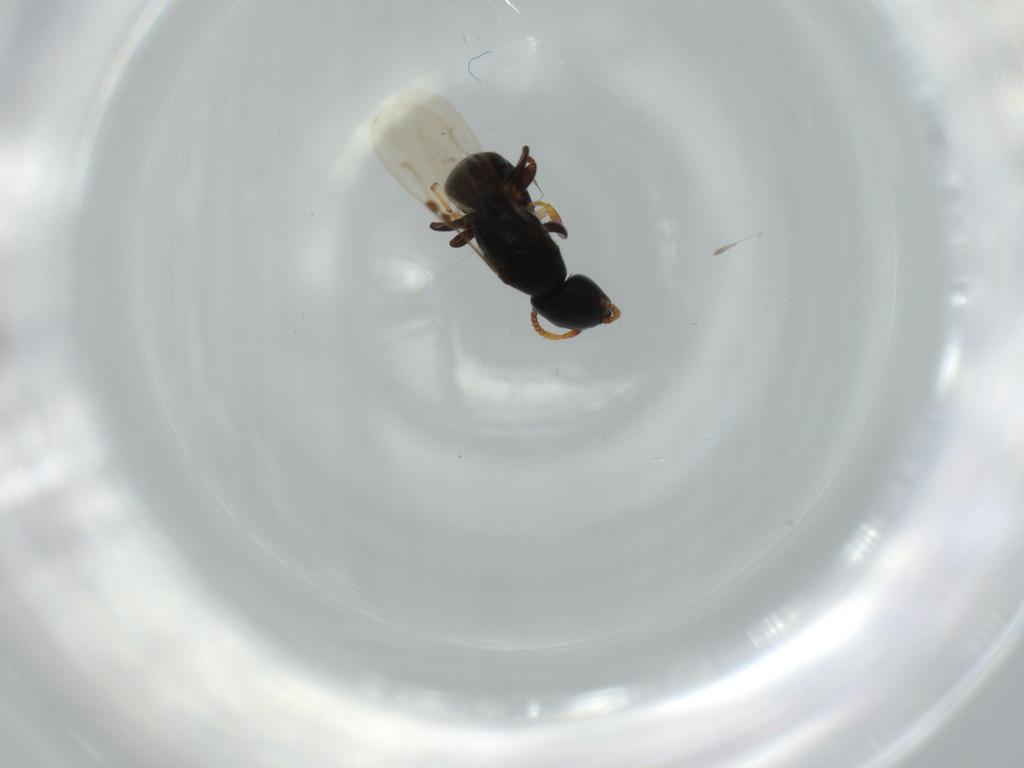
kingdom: Animalia
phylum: Arthropoda
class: Insecta
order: Hymenoptera
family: Bethylidae
